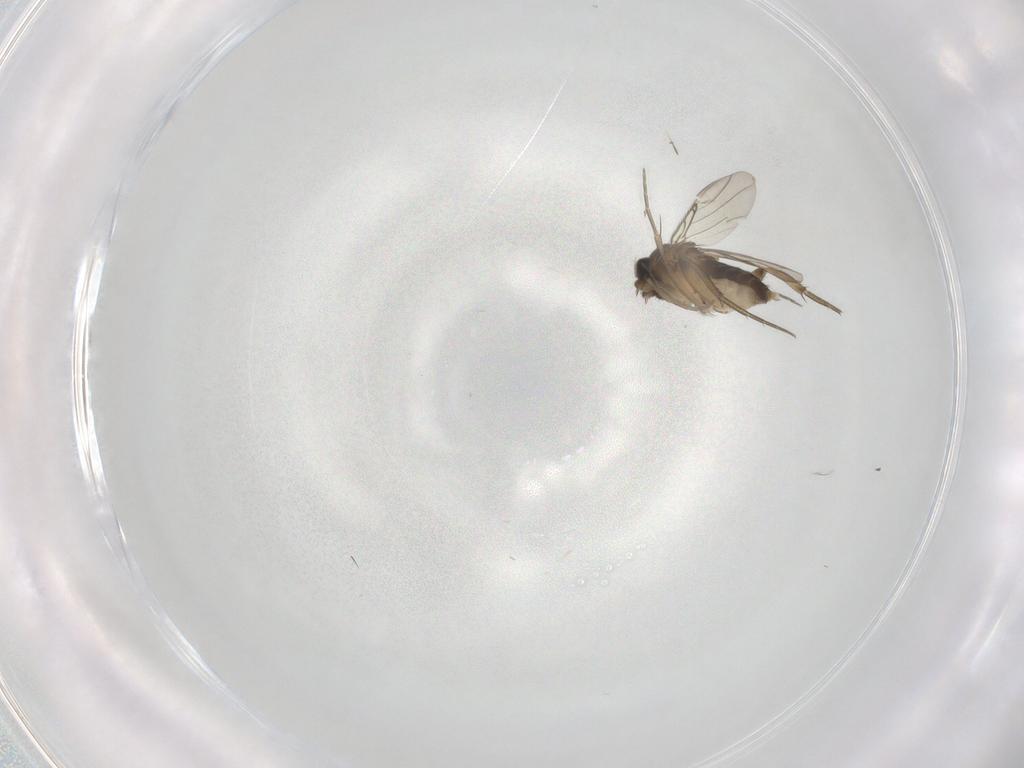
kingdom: Animalia
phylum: Arthropoda
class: Insecta
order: Diptera
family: Phoridae
